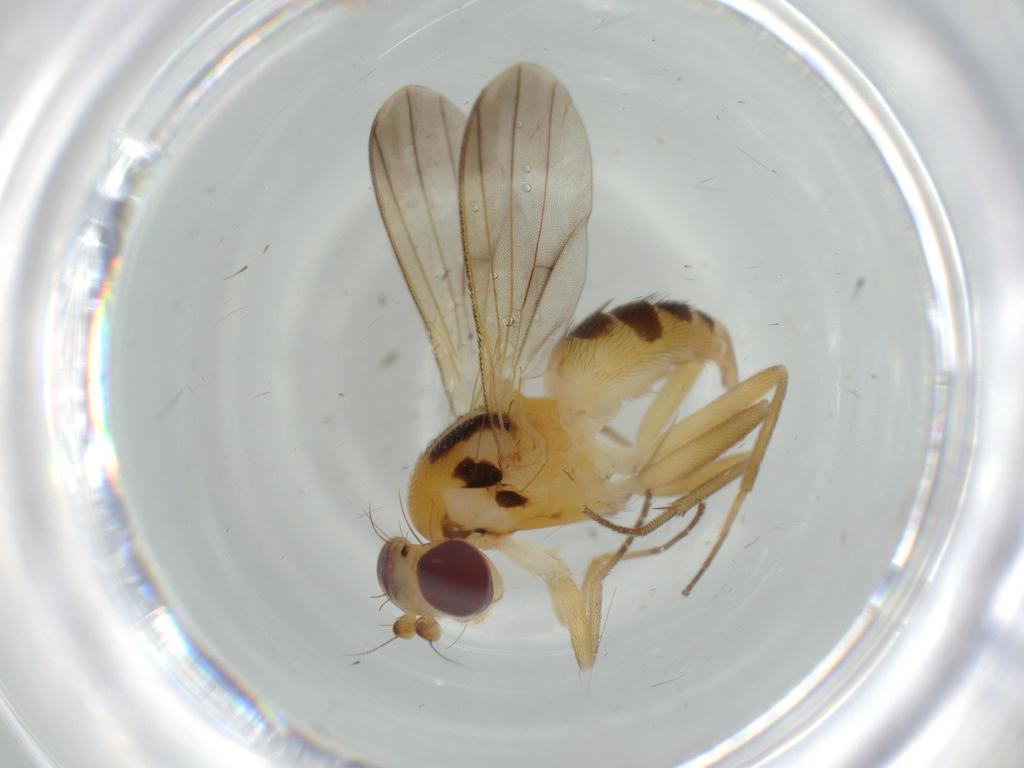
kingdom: Animalia
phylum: Arthropoda
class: Insecta
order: Diptera
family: Clusiidae
